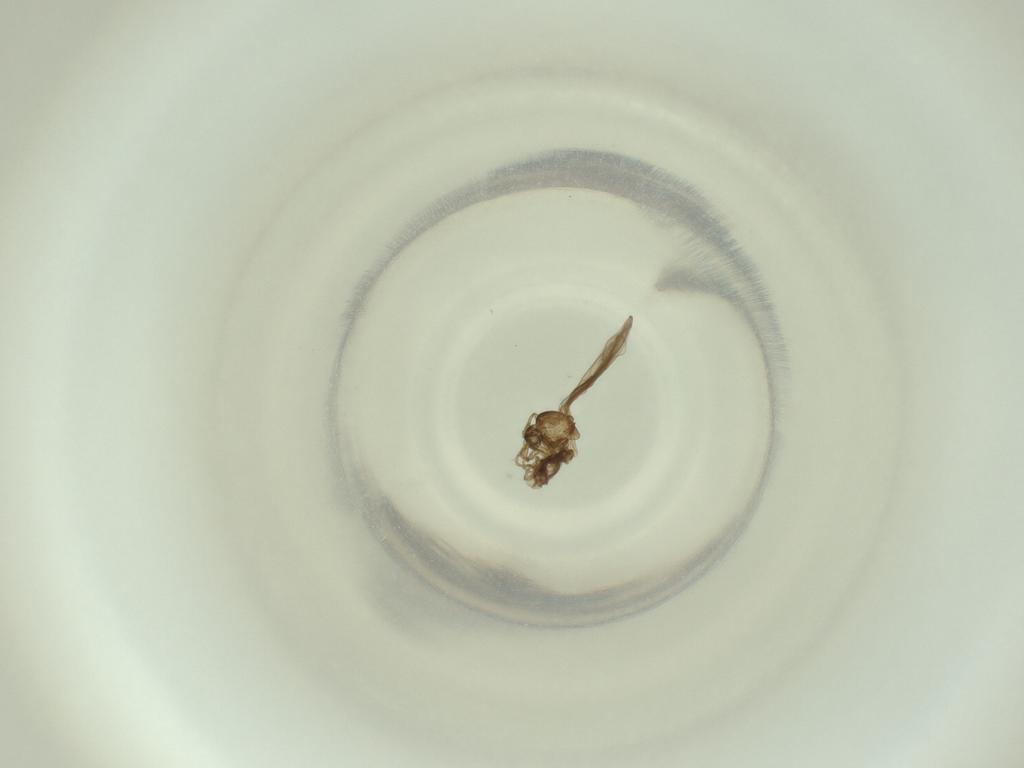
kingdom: Animalia
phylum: Arthropoda
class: Insecta
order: Diptera
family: Cecidomyiidae
